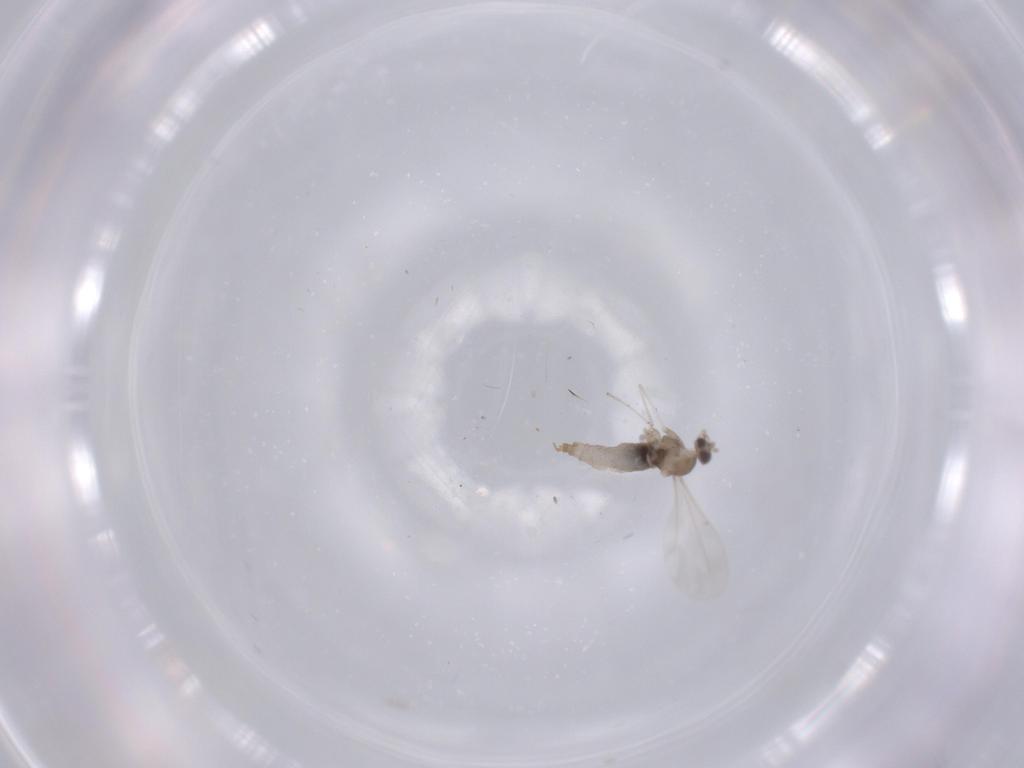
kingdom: Animalia
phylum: Arthropoda
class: Insecta
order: Diptera
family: Cecidomyiidae
